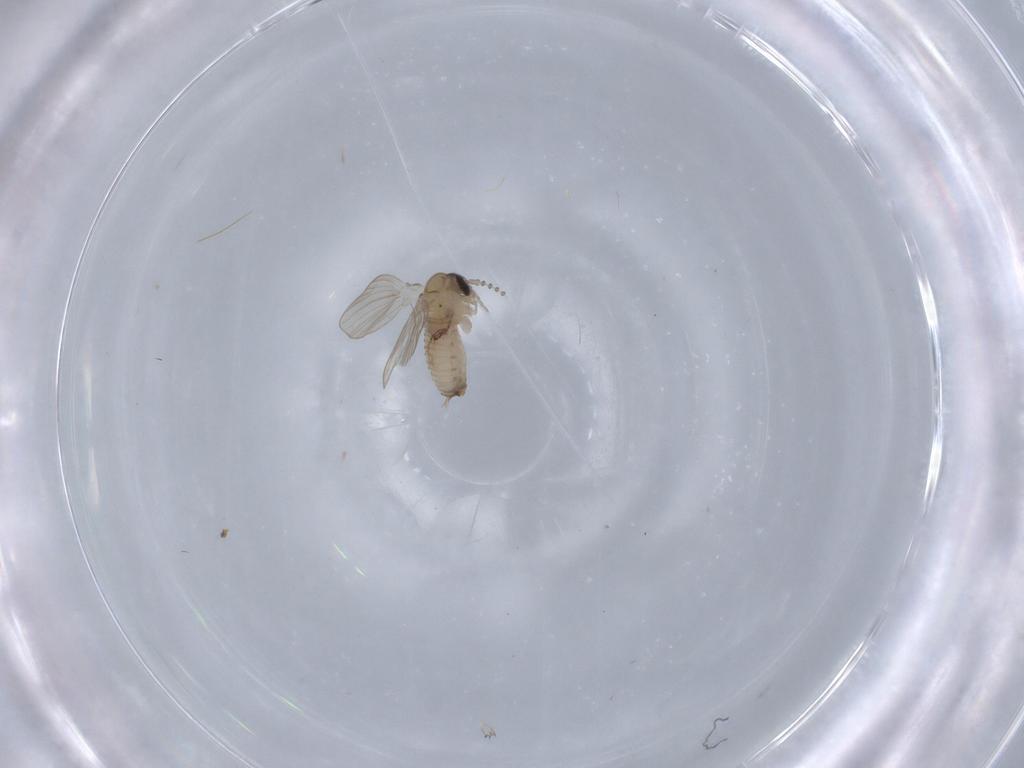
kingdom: Animalia
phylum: Arthropoda
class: Insecta
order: Diptera
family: Psychodidae
